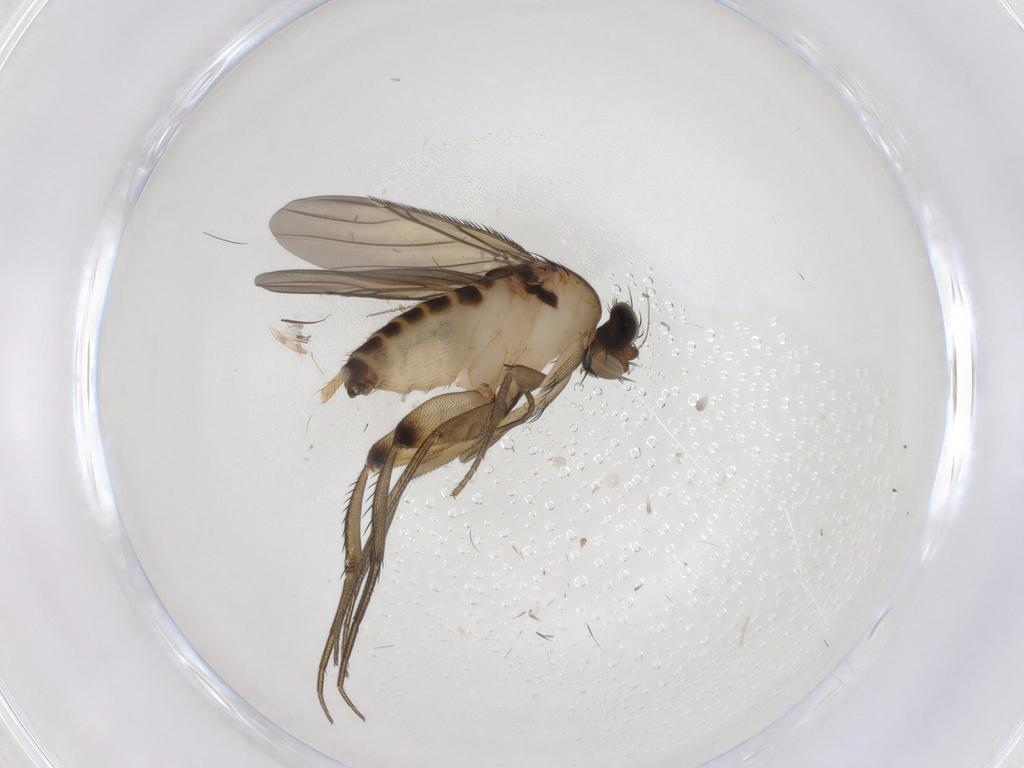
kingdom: Animalia
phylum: Arthropoda
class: Insecta
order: Diptera
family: Phoridae
